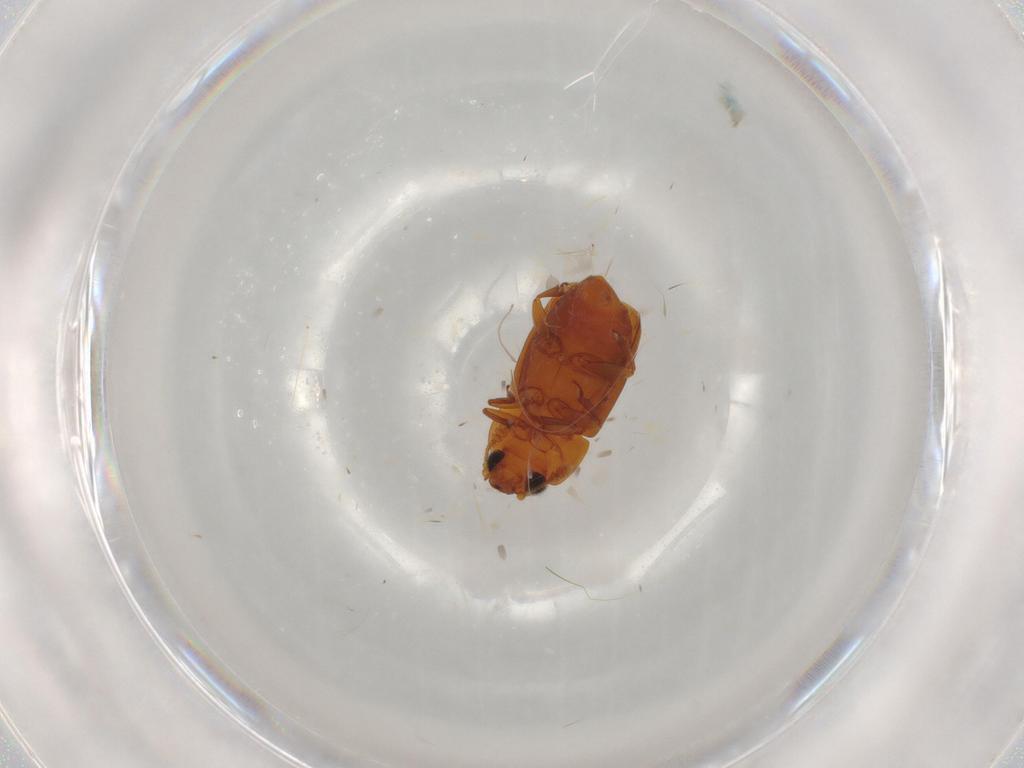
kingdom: Animalia
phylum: Arthropoda
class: Insecta
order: Coleoptera
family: Nitidulidae
